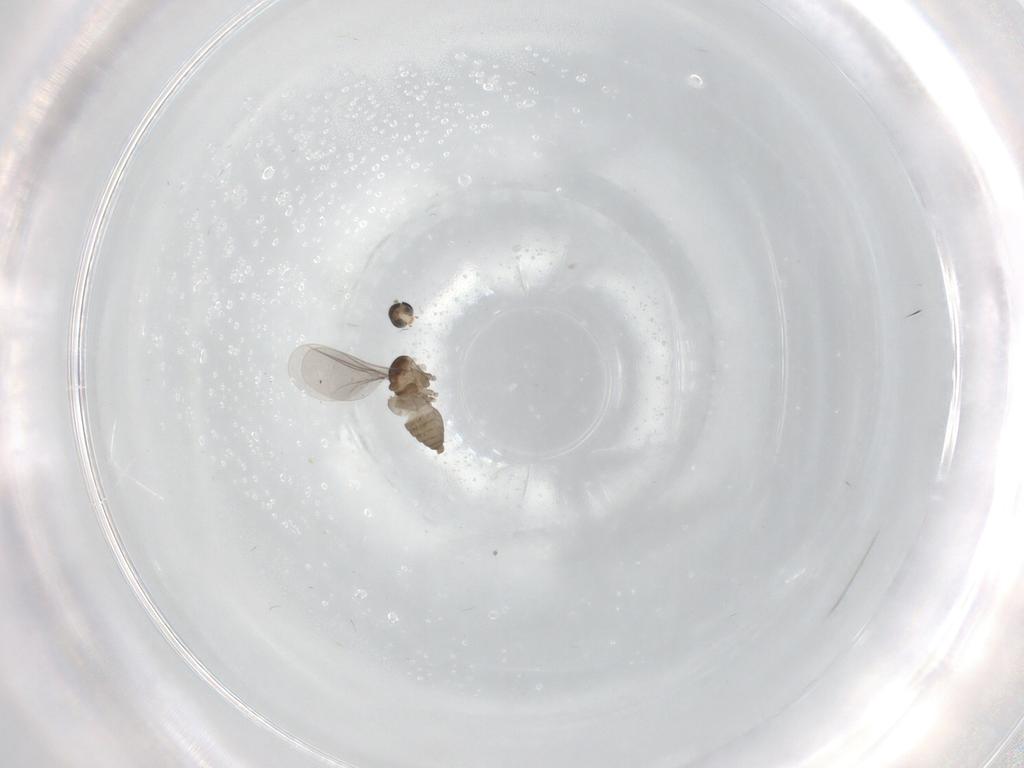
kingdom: Animalia
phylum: Arthropoda
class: Insecta
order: Diptera
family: Cecidomyiidae
